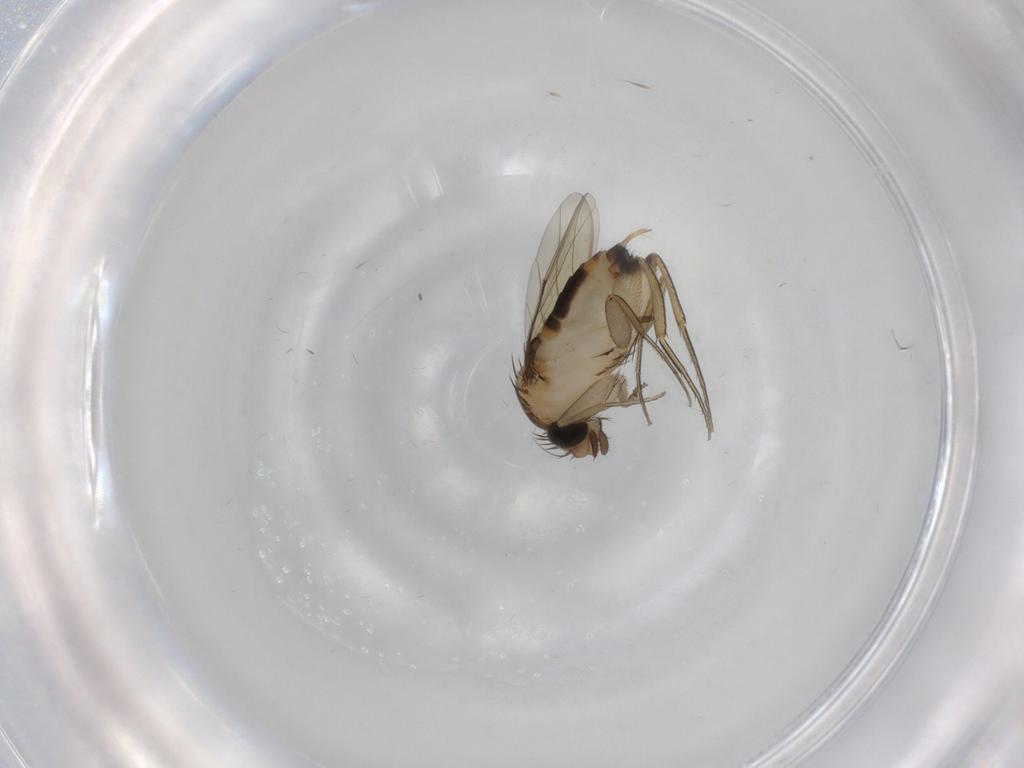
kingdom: Animalia
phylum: Arthropoda
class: Insecta
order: Diptera
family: Phoridae
